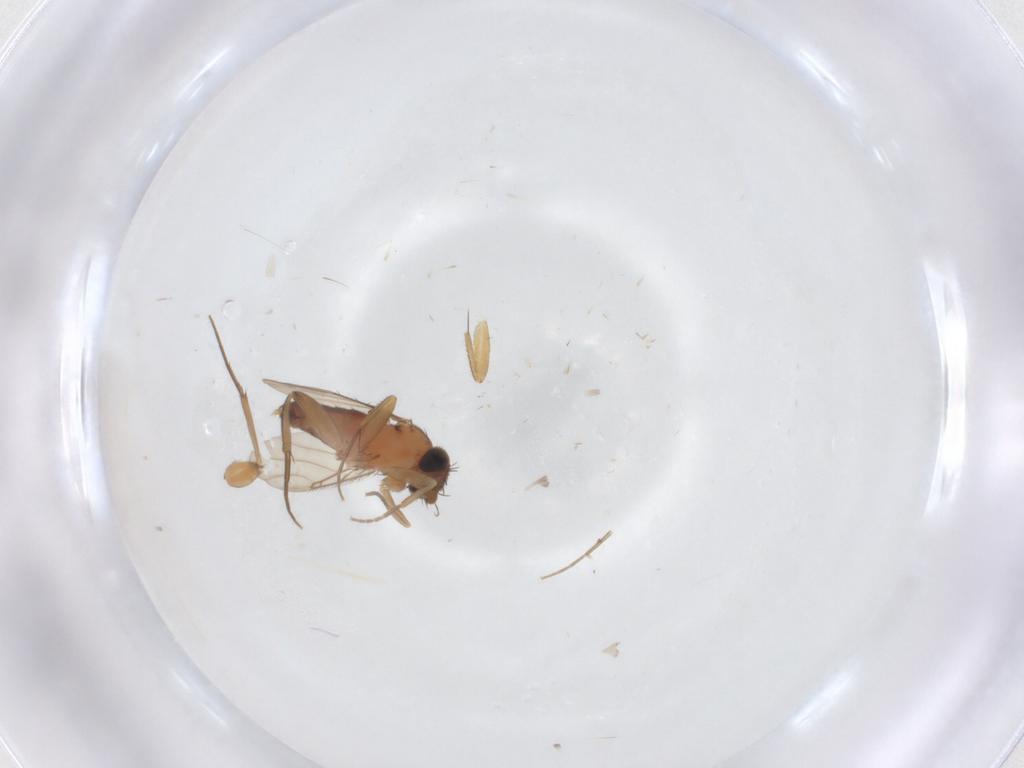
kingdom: Animalia
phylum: Arthropoda
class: Insecta
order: Diptera
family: Phoridae
